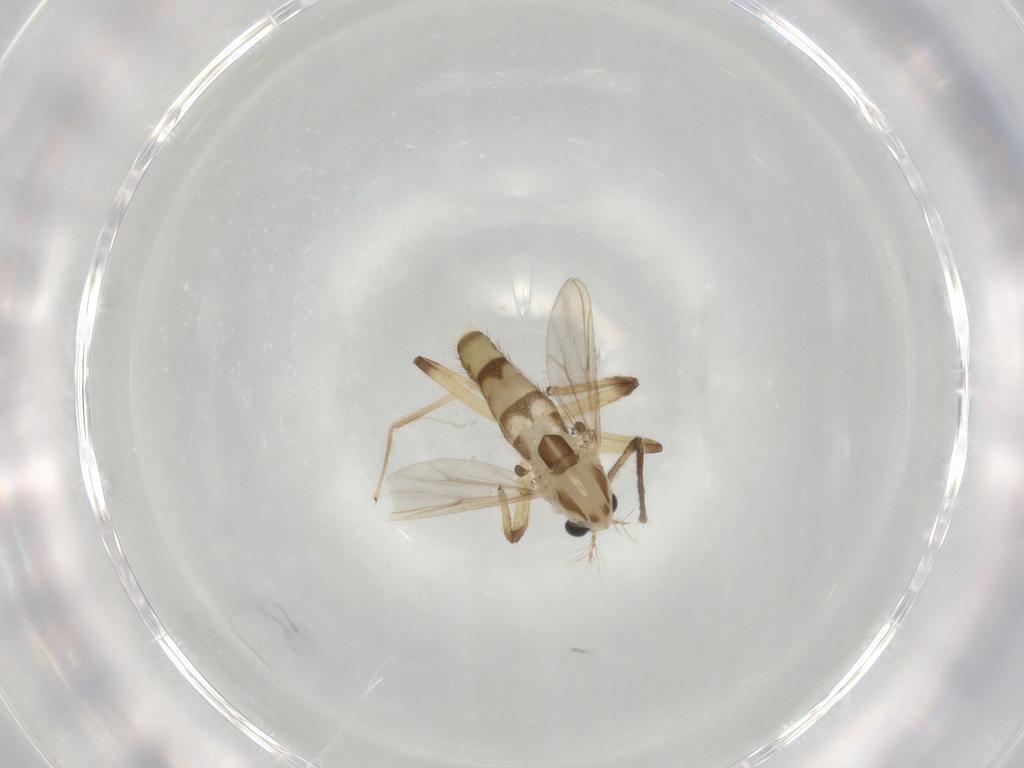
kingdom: Animalia
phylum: Arthropoda
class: Insecta
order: Diptera
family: Chironomidae
